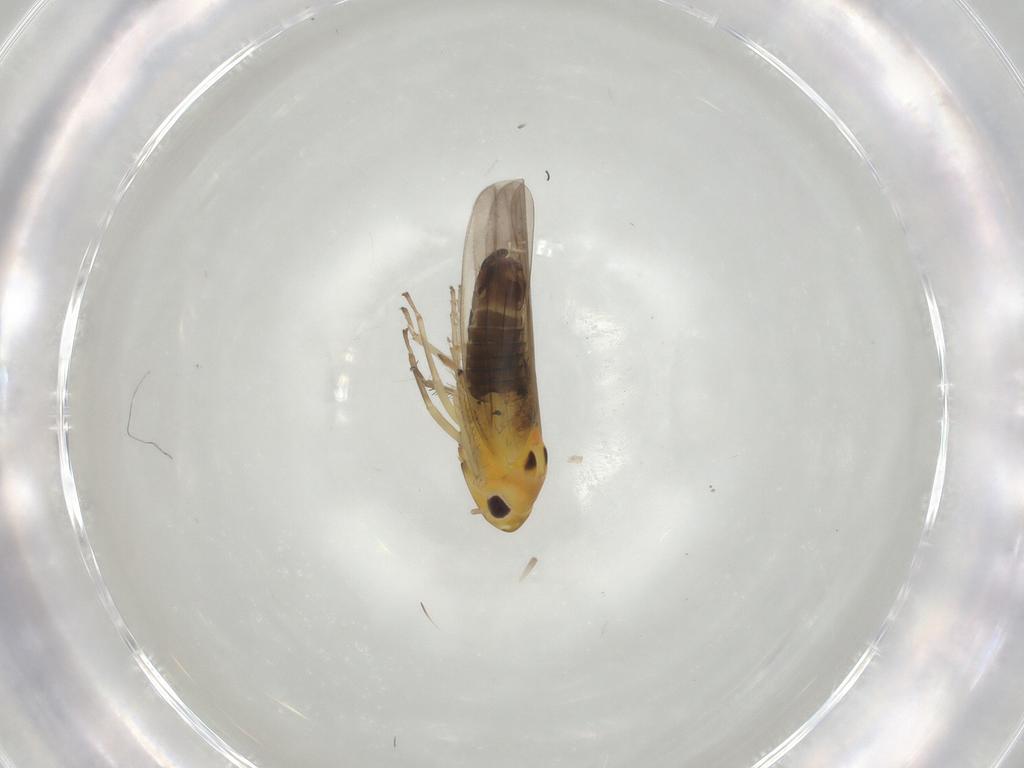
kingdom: Animalia
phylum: Arthropoda
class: Insecta
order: Hemiptera
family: Cicadellidae
